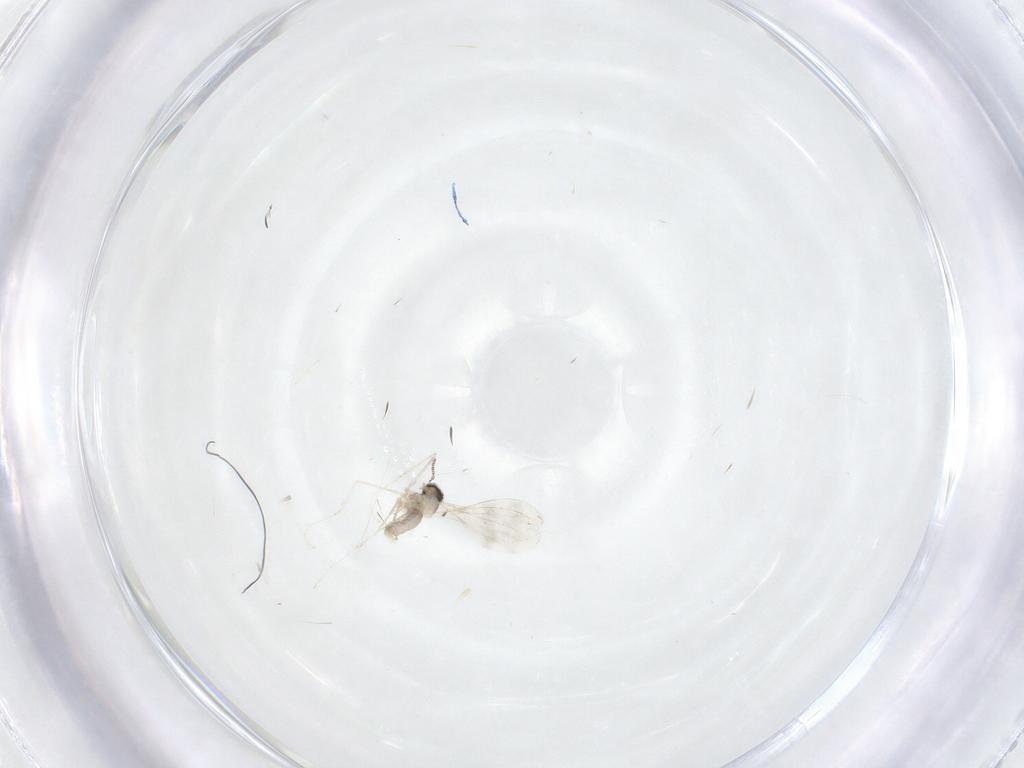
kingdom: Animalia
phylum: Arthropoda
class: Insecta
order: Diptera
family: Cecidomyiidae
